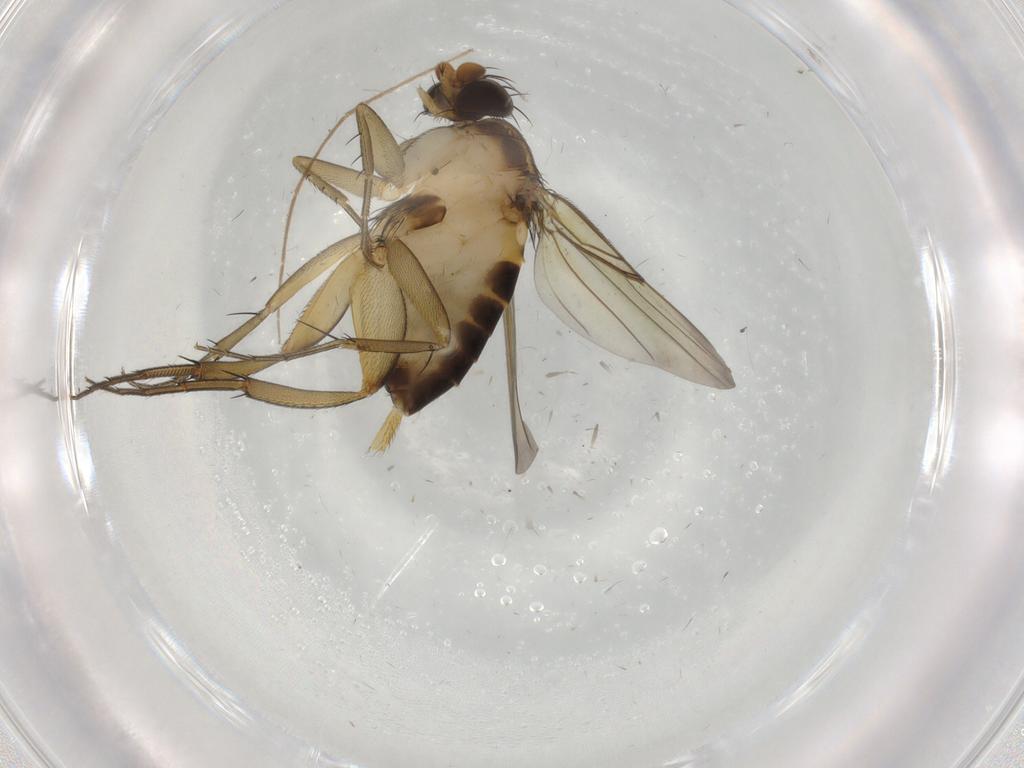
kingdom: Animalia
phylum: Arthropoda
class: Insecta
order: Diptera
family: Phoridae
